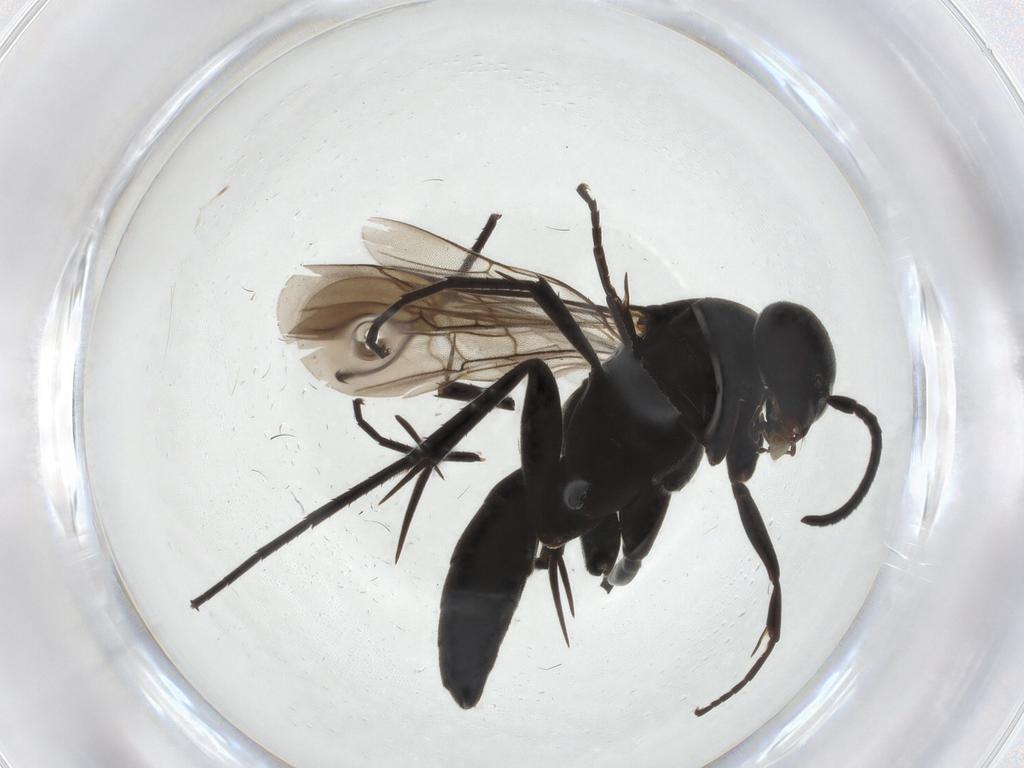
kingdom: Animalia
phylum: Arthropoda
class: Insecta
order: Hymenoptera
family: Pompilidae
